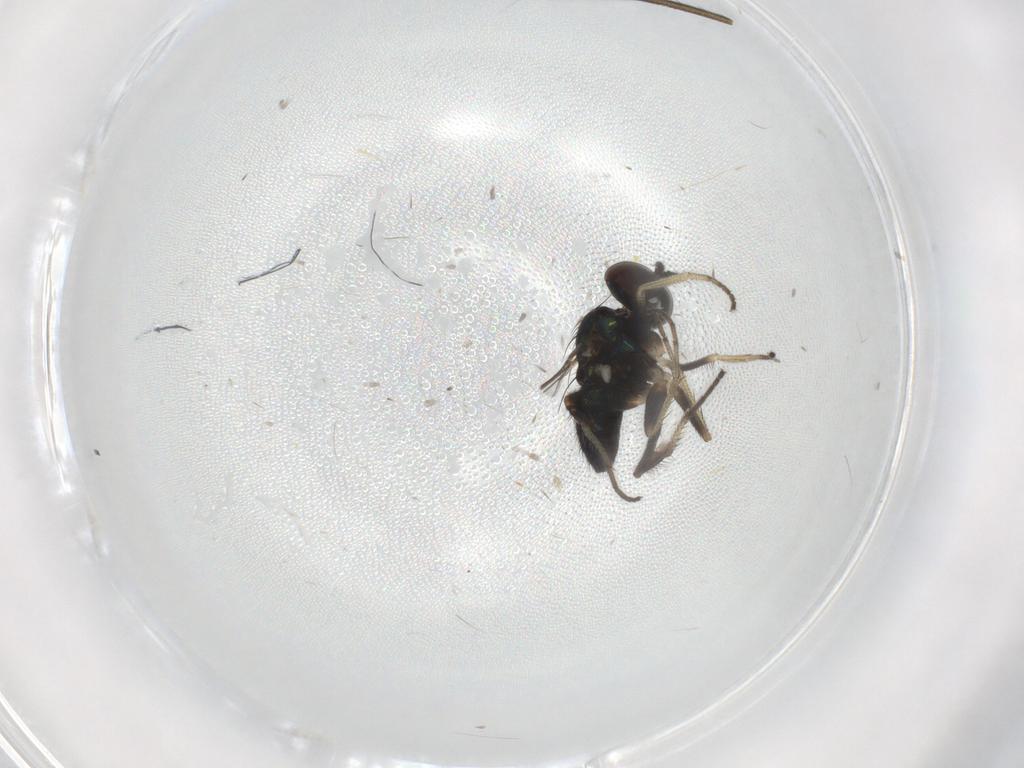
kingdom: Animalia
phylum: Arthropoda
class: Insecta
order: Diptera
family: Dolichopodidae
